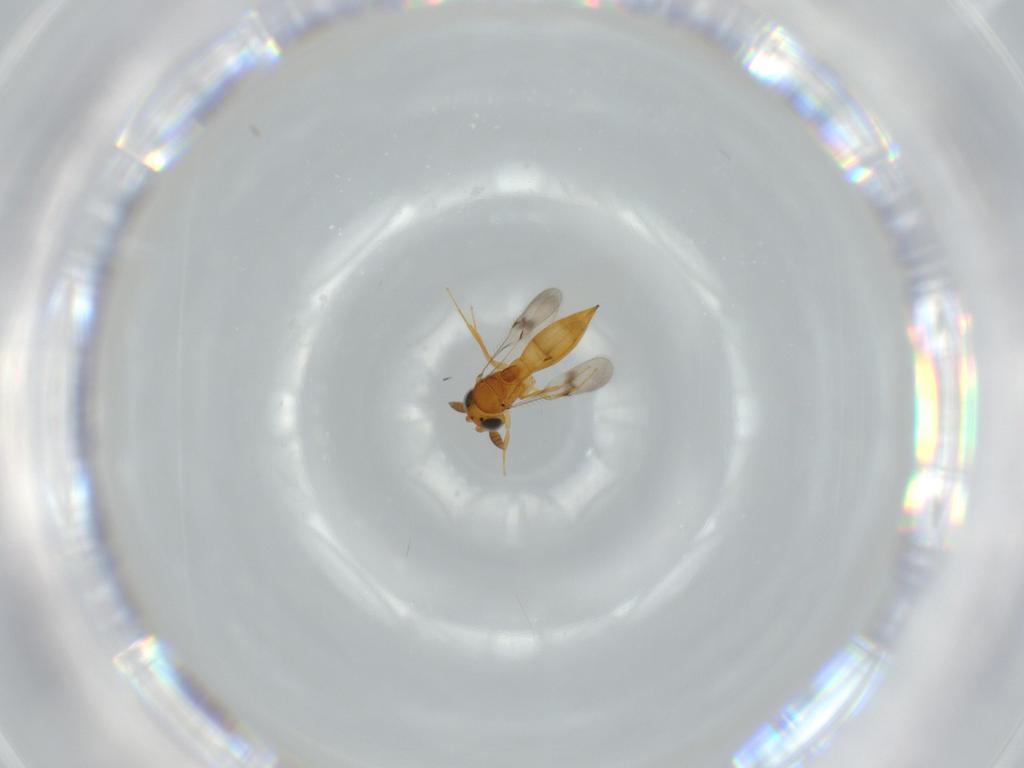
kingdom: Animalia
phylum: Arthropoda
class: Insecta
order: Hymenoptera
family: Scelionidae
